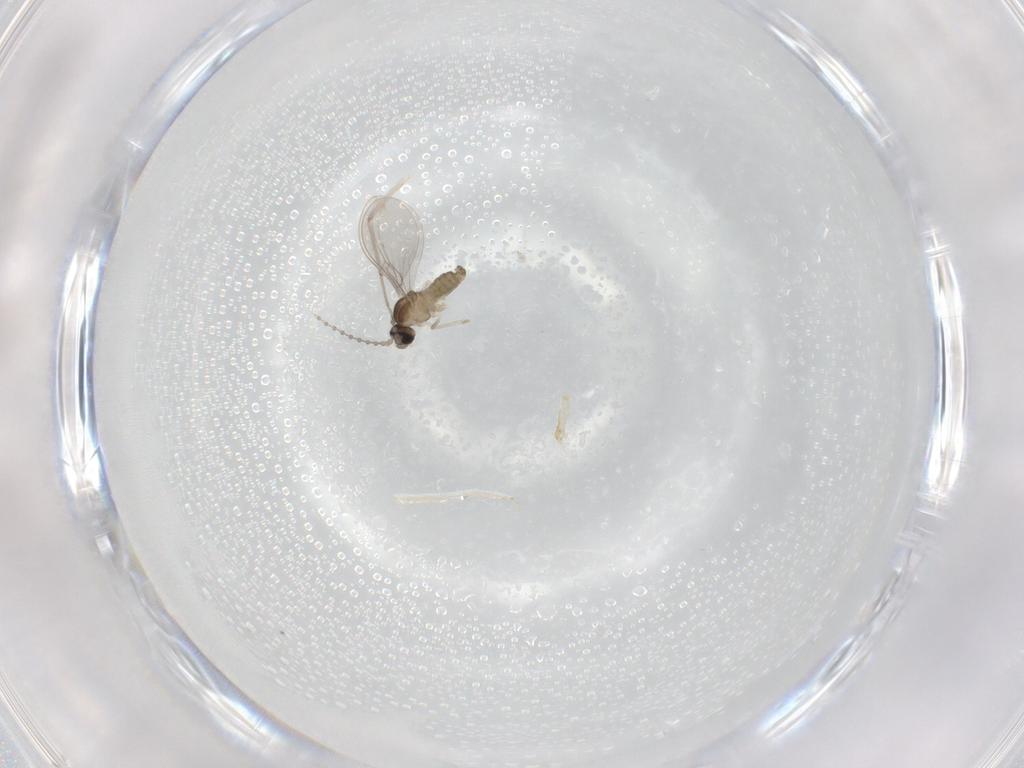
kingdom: Animalia
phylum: Arthropoda
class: Insecta
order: Diptera
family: Chironomidae
